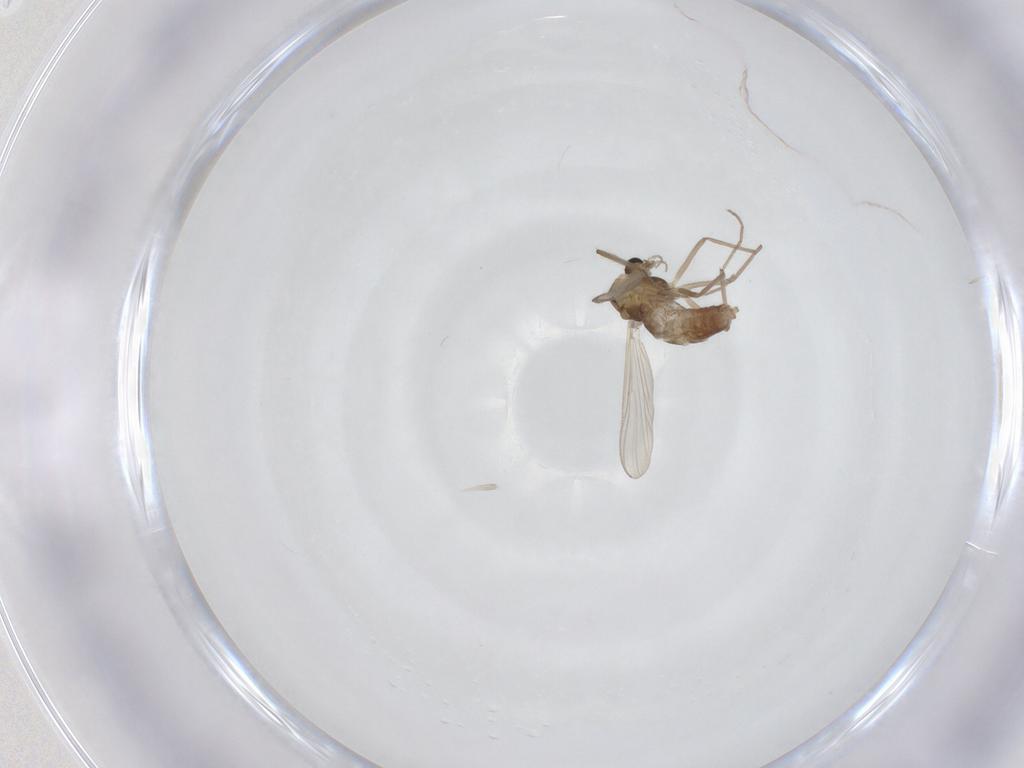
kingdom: Animalia
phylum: Arthropoda
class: Insecta
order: Diptera
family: Chironomidae
